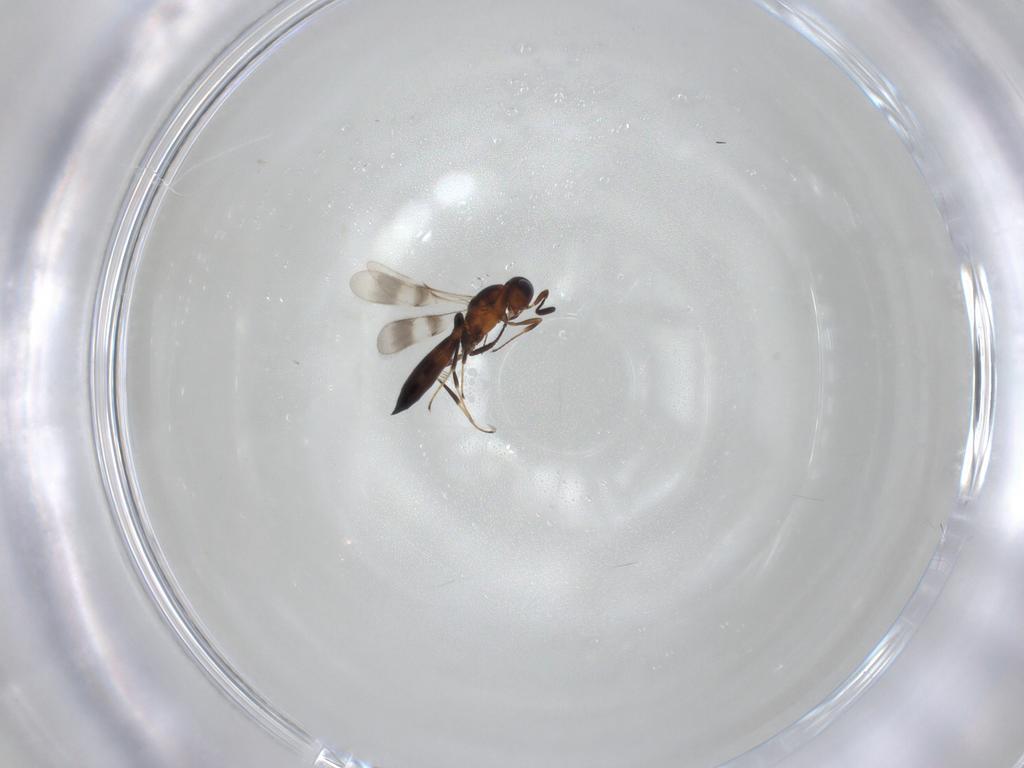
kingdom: Animalia
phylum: Arthropoda
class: Insecta
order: Hymenoptera
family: Scelionidae
